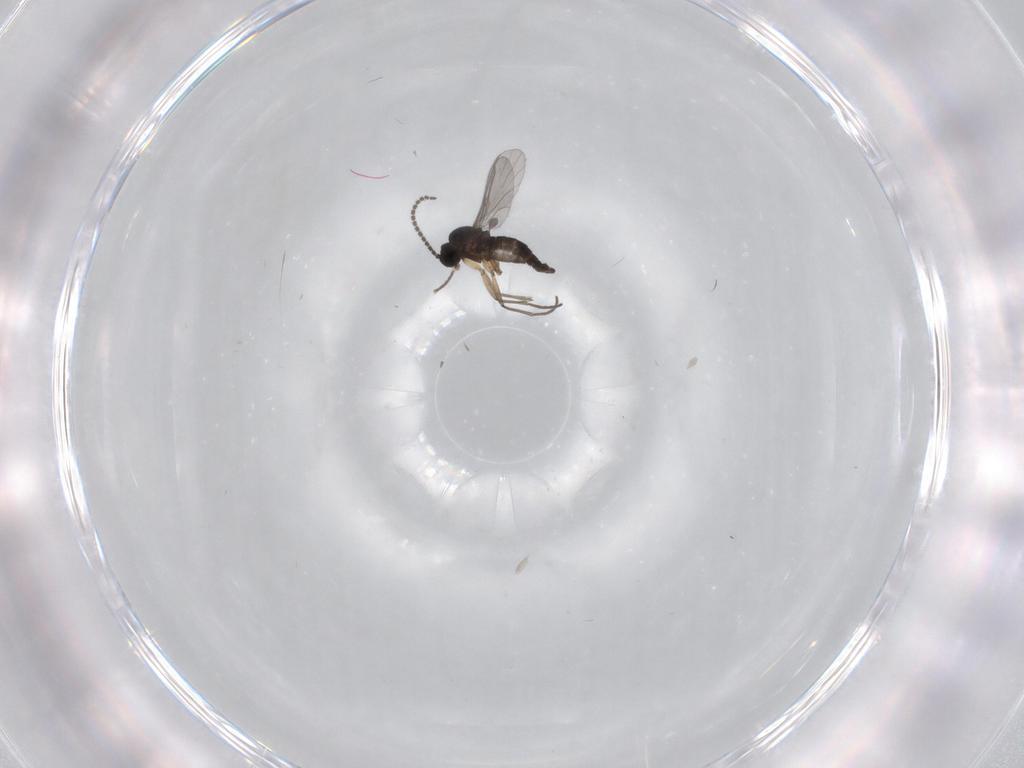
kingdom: Animalia
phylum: Arthropoda
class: Insecta
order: Diptera
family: Sciaridae
